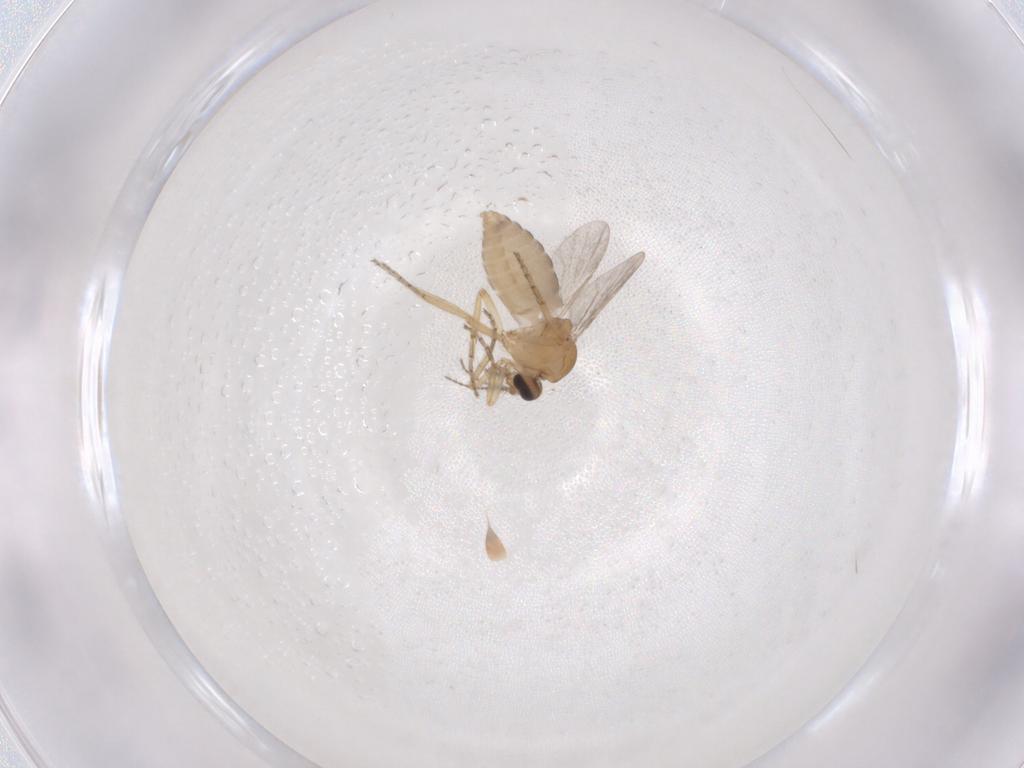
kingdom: Animalia
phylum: Arthropoda
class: Insecta
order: Diptera
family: Ceratopogonidae
